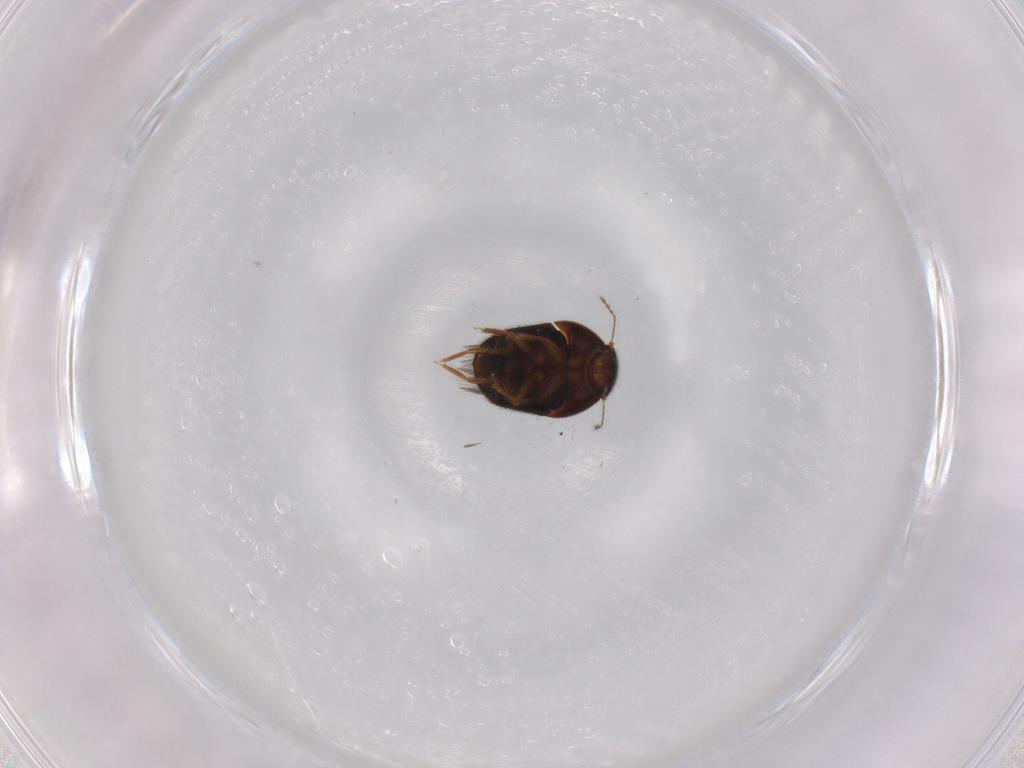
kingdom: Animalia
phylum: Arthropoda
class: Insecta
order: Coleoptera
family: Ptiliidae
